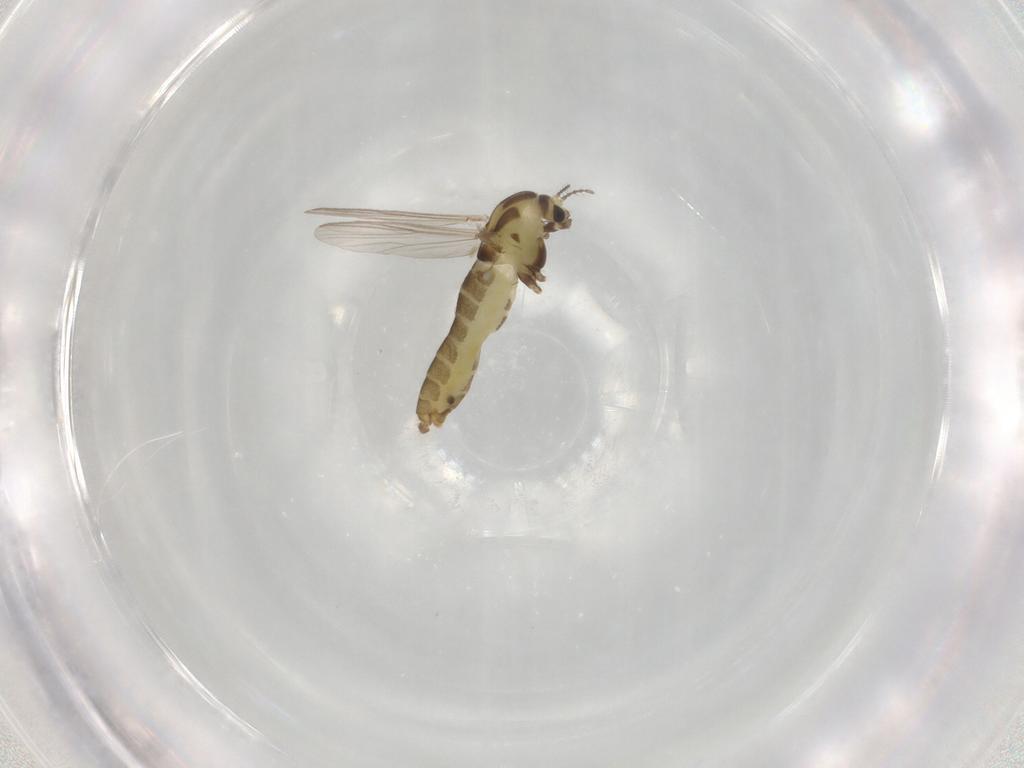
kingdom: Animalia
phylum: Arthropoda
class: Insecta
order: Diptera
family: Chironomidae
